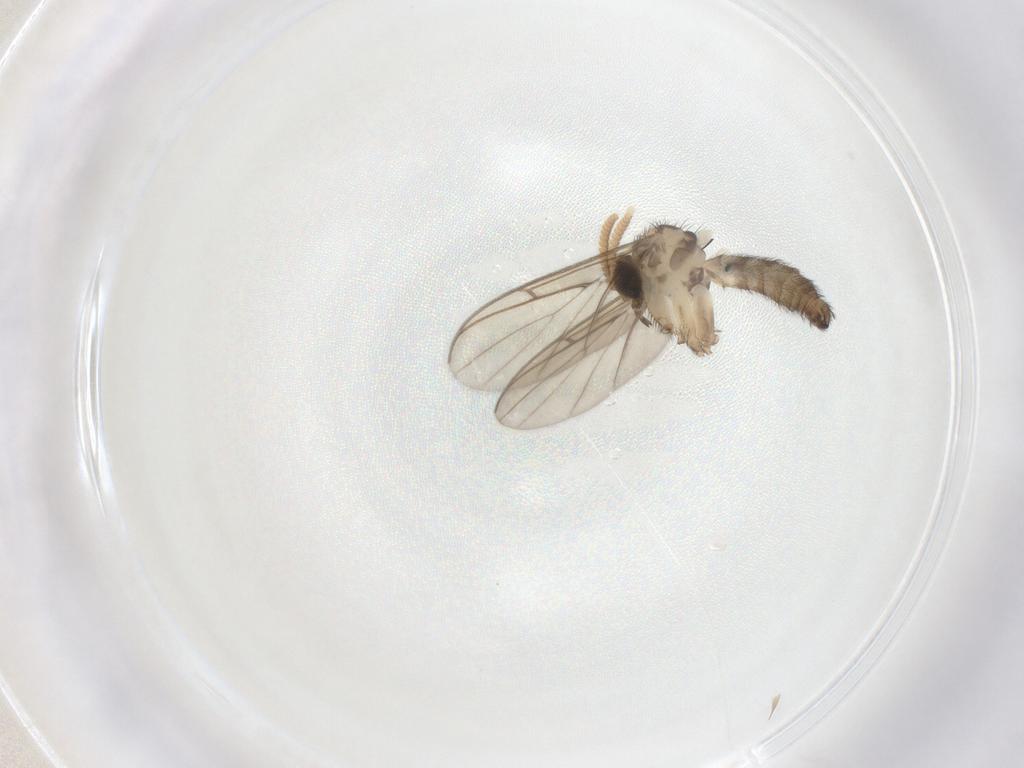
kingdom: Animalia
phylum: Arthropoda
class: Insecta
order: Diptera
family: Keroplatidae
